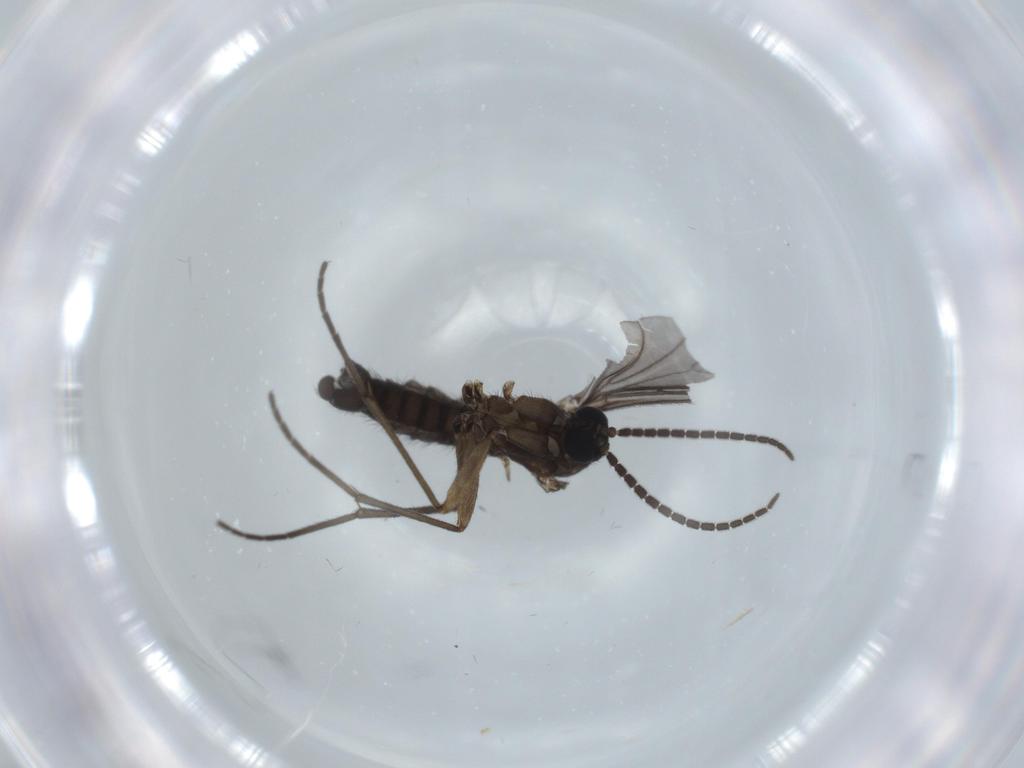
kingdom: Animalia
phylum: Arthropoda
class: Insecta
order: Diptera
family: Sciaridae
